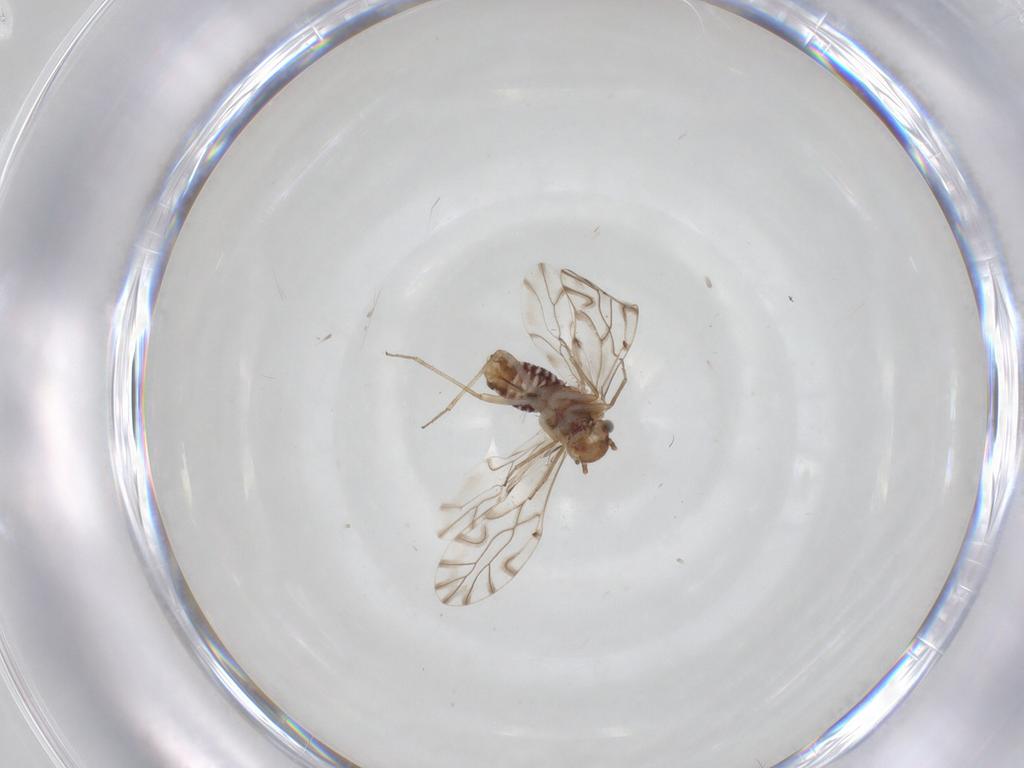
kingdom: Animalia
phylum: Arthropoda
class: Insecta
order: Psocodea
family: Lachesillidae
